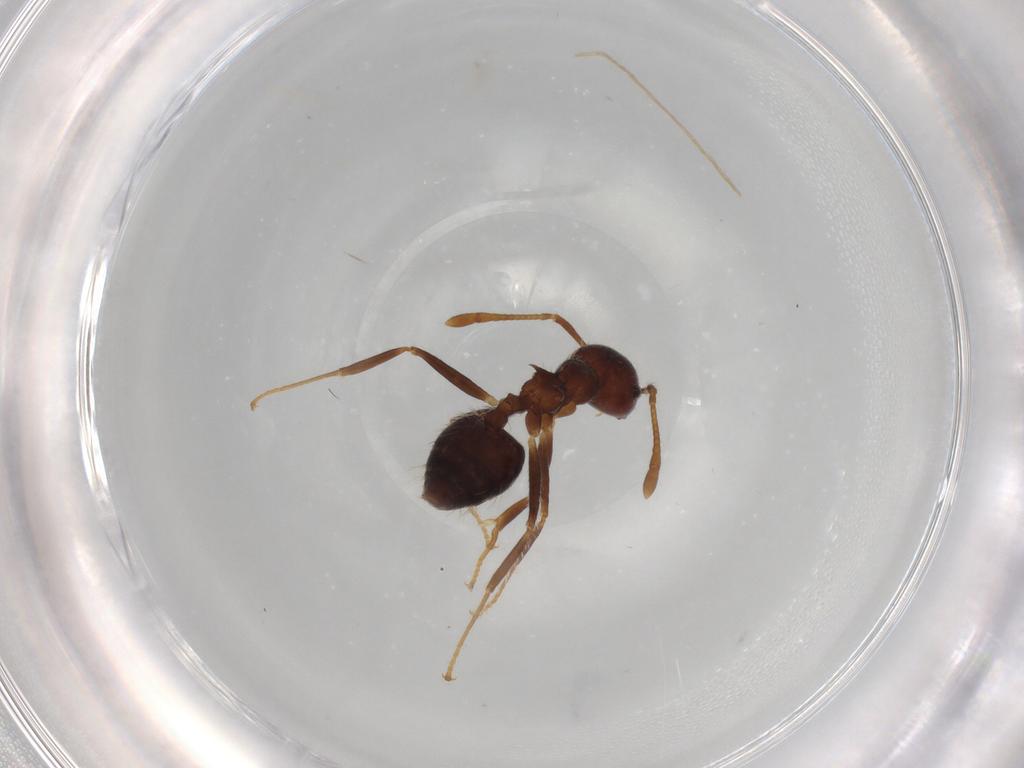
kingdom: Animalia
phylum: Arthropoda
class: Insecta
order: Hymenoptera
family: Formicidae
